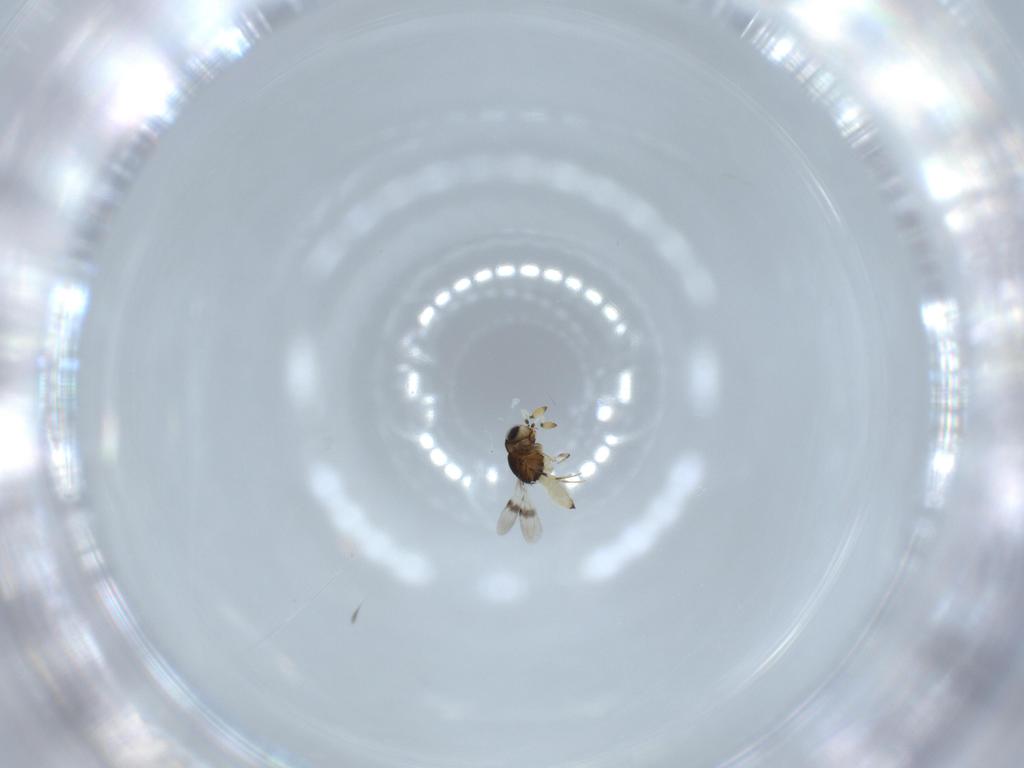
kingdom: Animalia
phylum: Arthropoda
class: Insecta
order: Hymenoptera
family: Scelionidae
